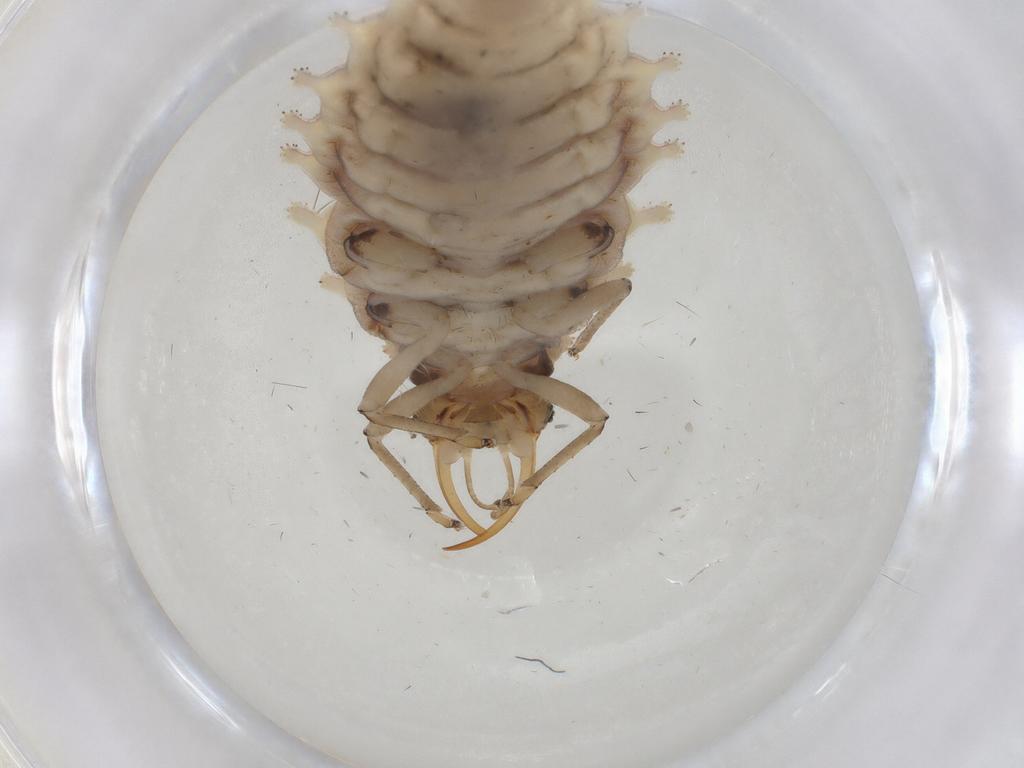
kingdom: Animalia
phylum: Arthropoda
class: Insecta
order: Neuroptera
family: Chrysopidae
